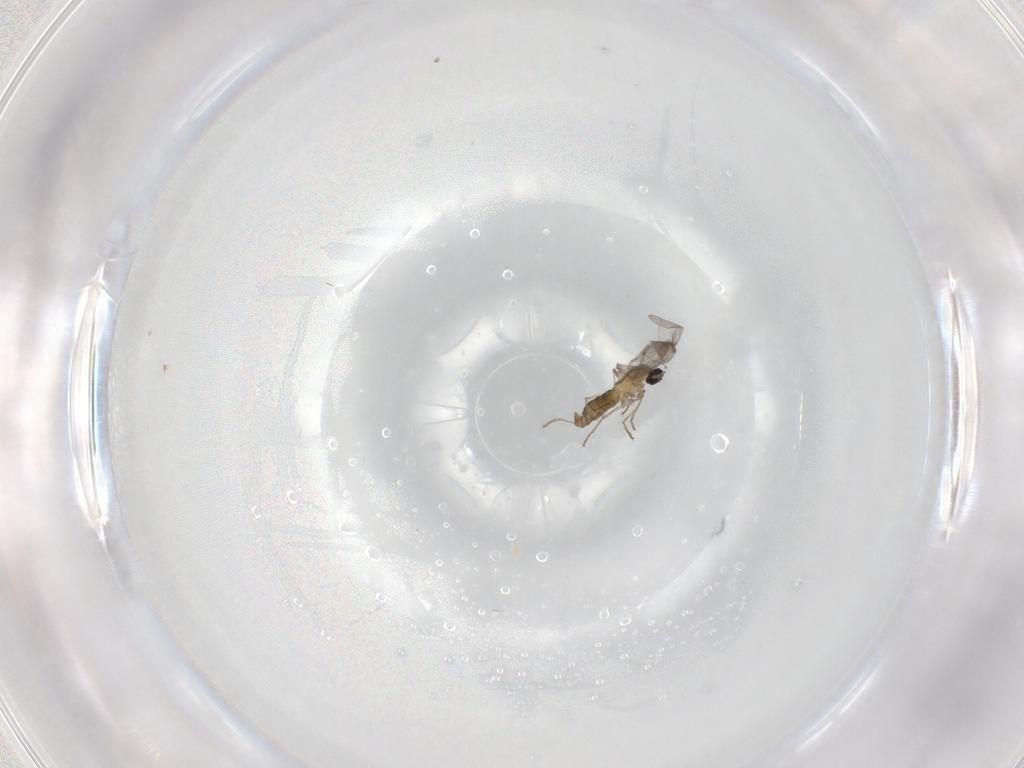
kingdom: Animalia
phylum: Arthropoda
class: Insecta
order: Diptera
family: Cecidomyiidae
